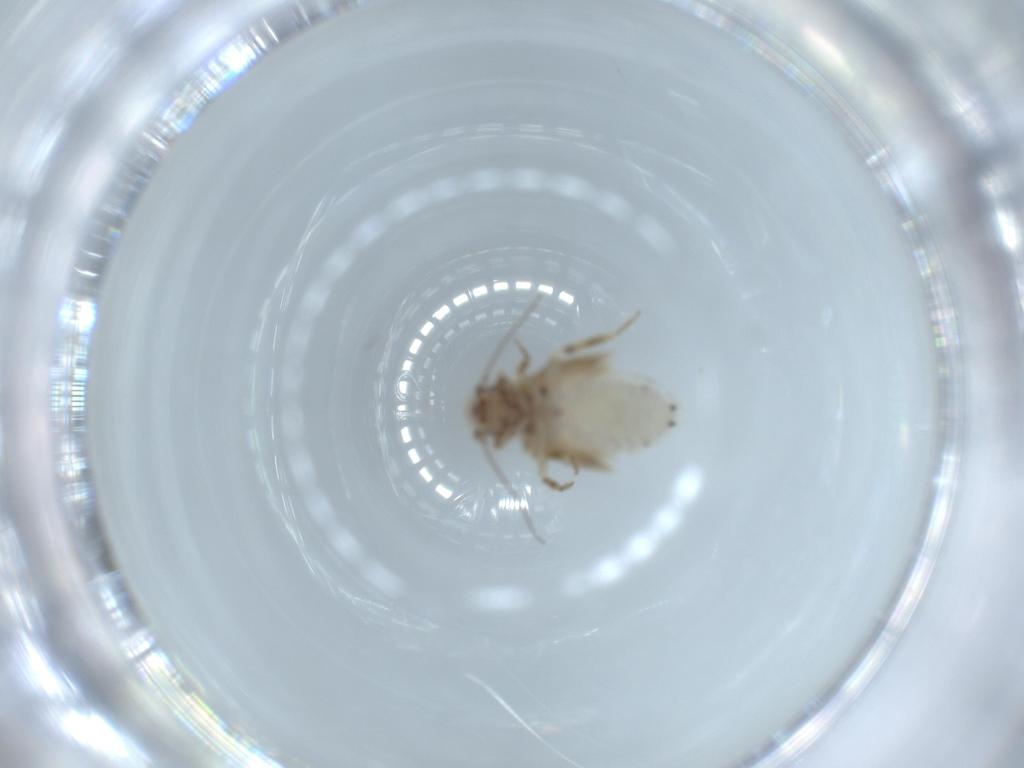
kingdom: Animalia
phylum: Arthropoda
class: Insecta
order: Psocodea
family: Lepidopsocidae
